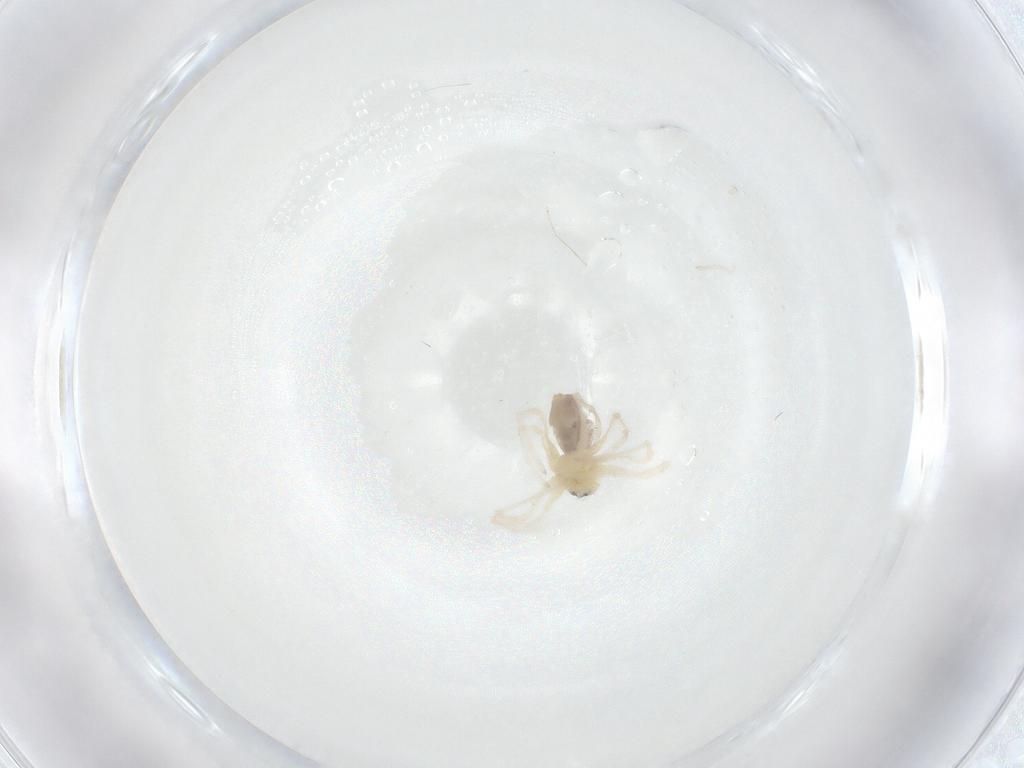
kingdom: Animalia
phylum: Arthropoda
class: Arachnida
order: Araneae
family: Pholcidae
